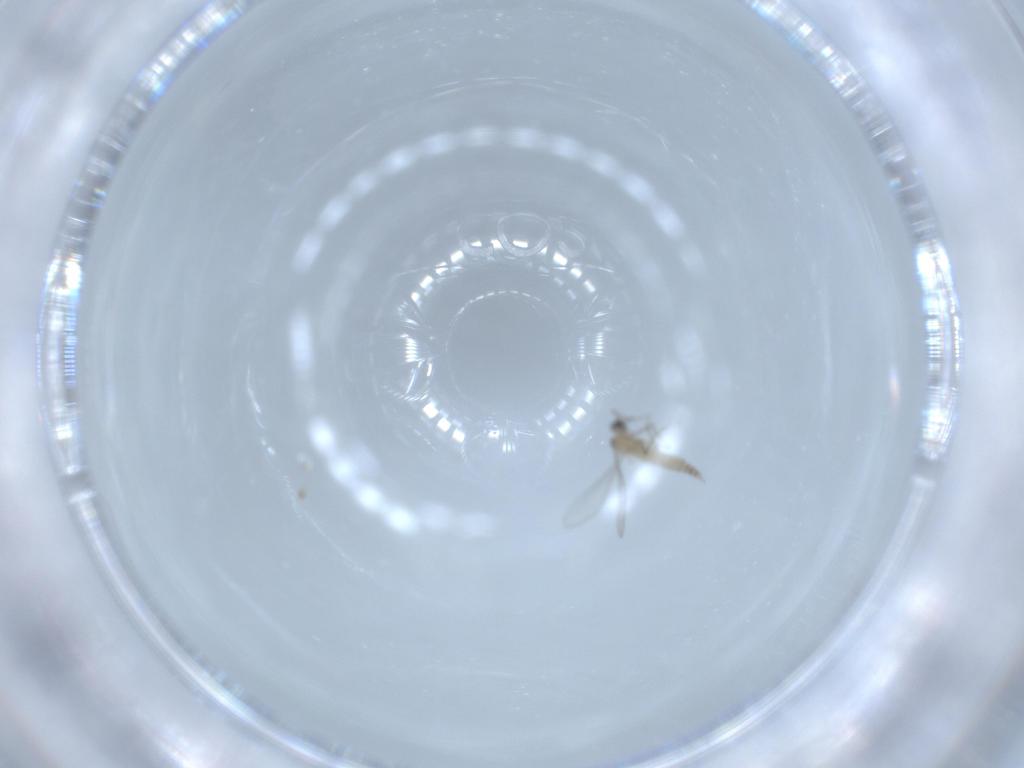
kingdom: Animalia
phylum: Arthropoda
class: Insecta
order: Diptera
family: Cecidomyiidae
